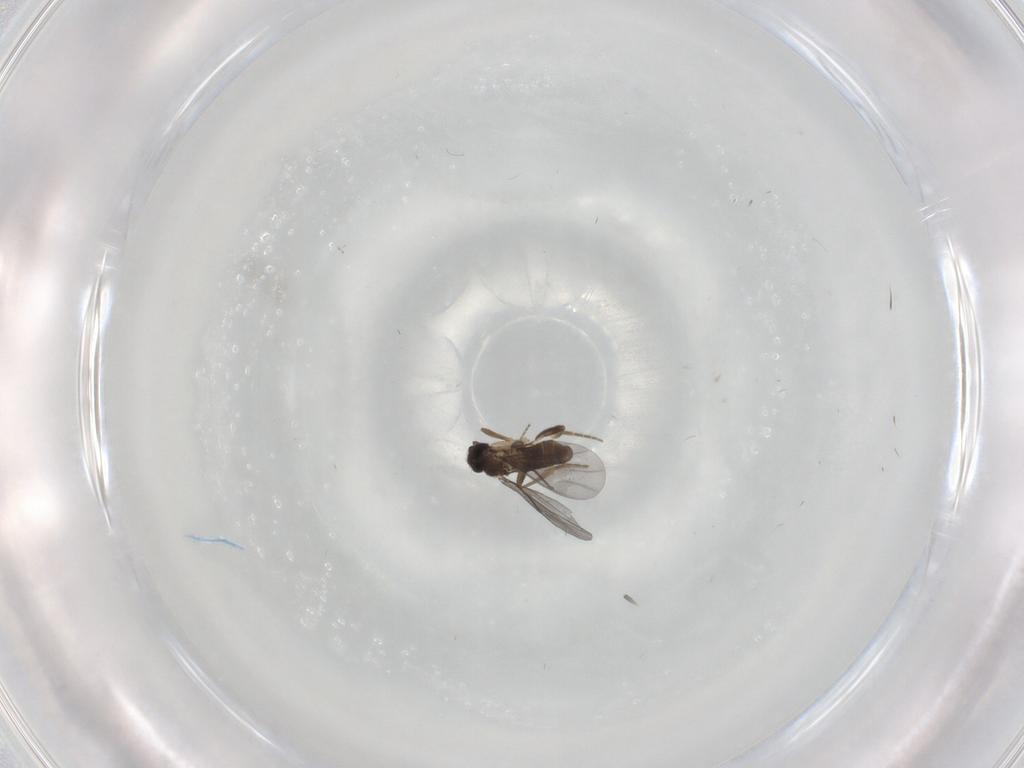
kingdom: Animalia
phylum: Arthropoda
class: Insecta
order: Diptera
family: Cecidomyiidae
